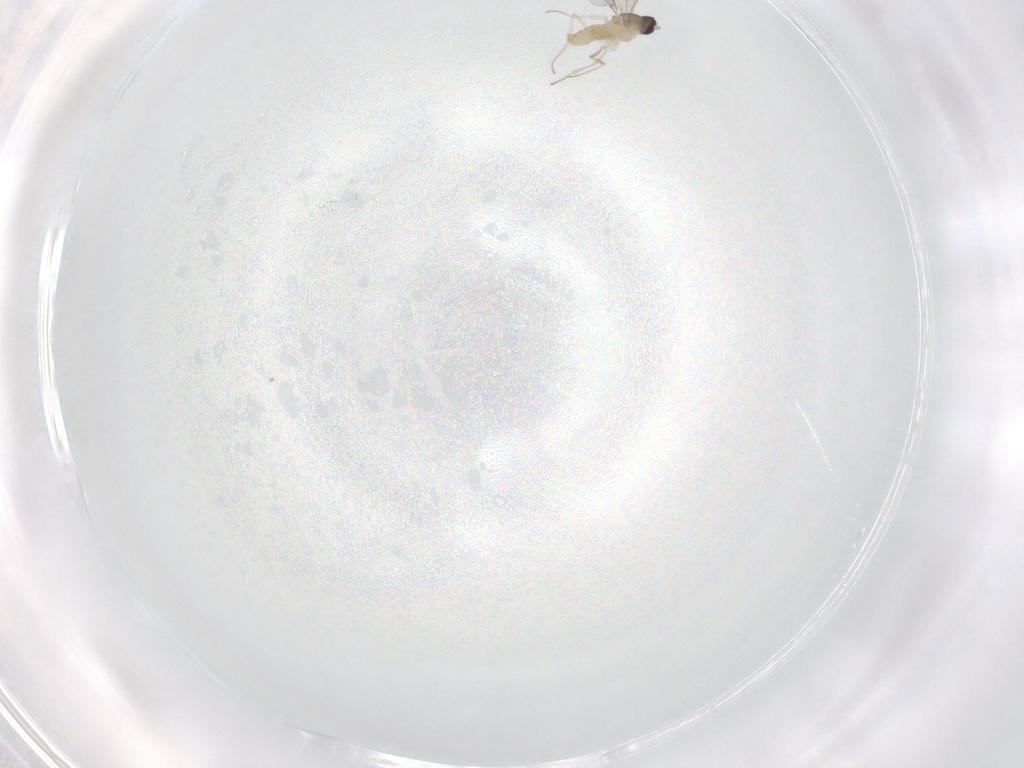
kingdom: Animalia
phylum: Arthropoda
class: Insecta
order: Diptera
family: Cecidomyiidae
